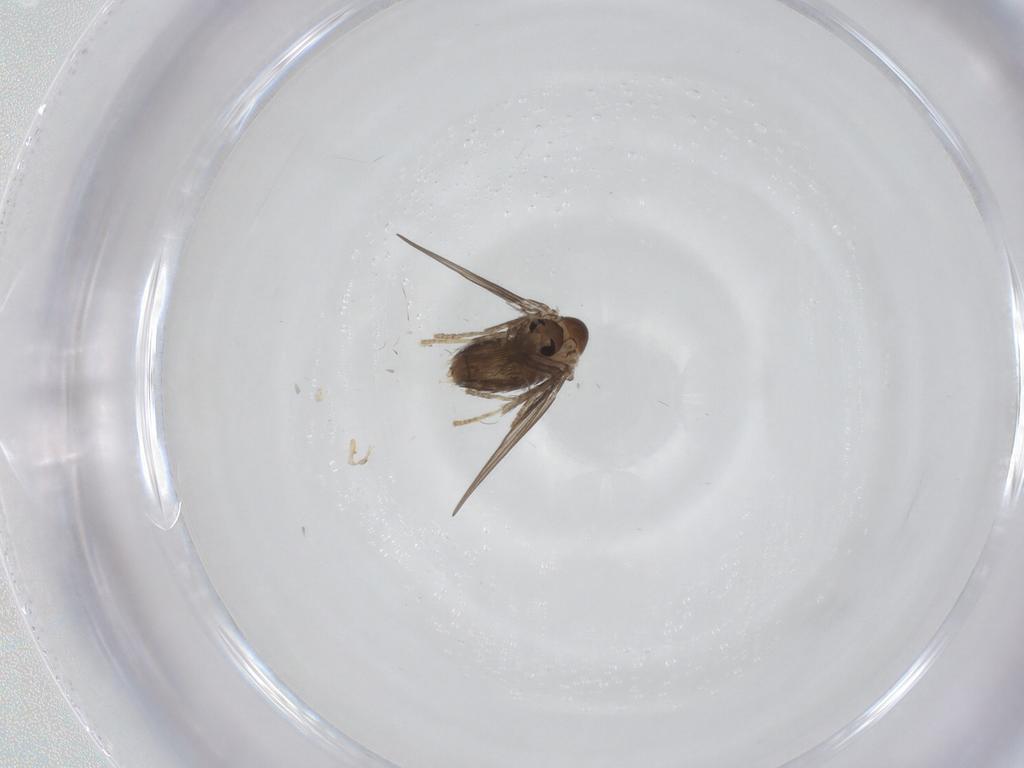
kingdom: Animalia
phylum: Arthropoda
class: Insecta
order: Diptera
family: Psychodidae
